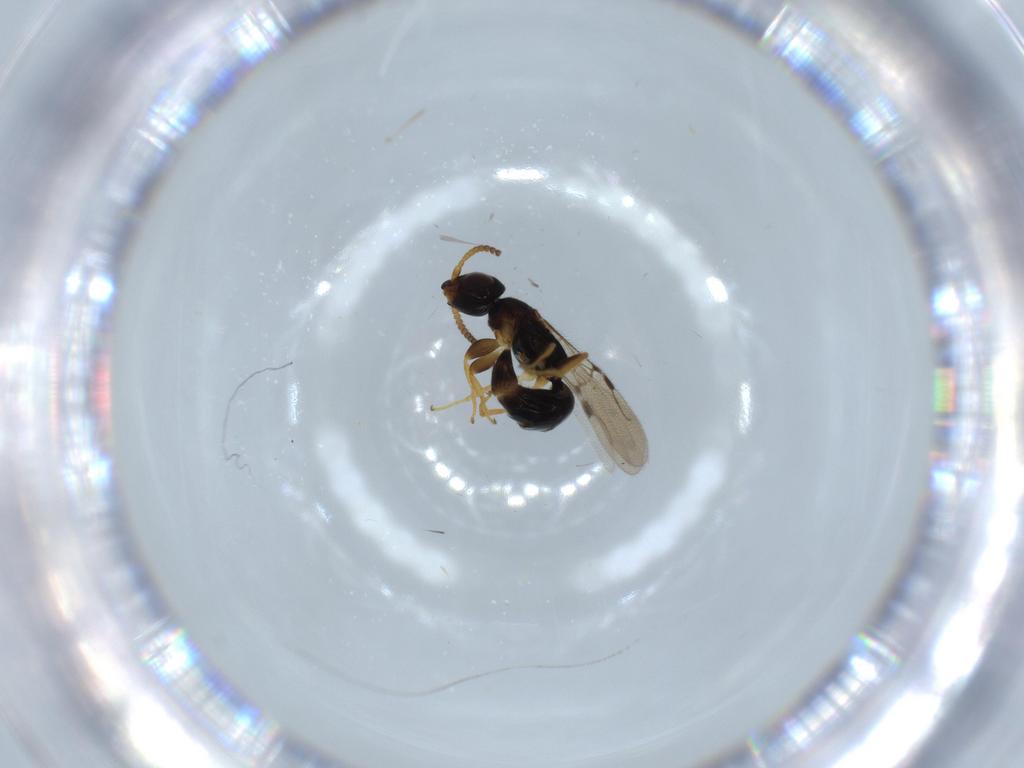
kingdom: Animalia
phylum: Arthropoda
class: Insecta
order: Hymenoptera
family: Bethylidae
